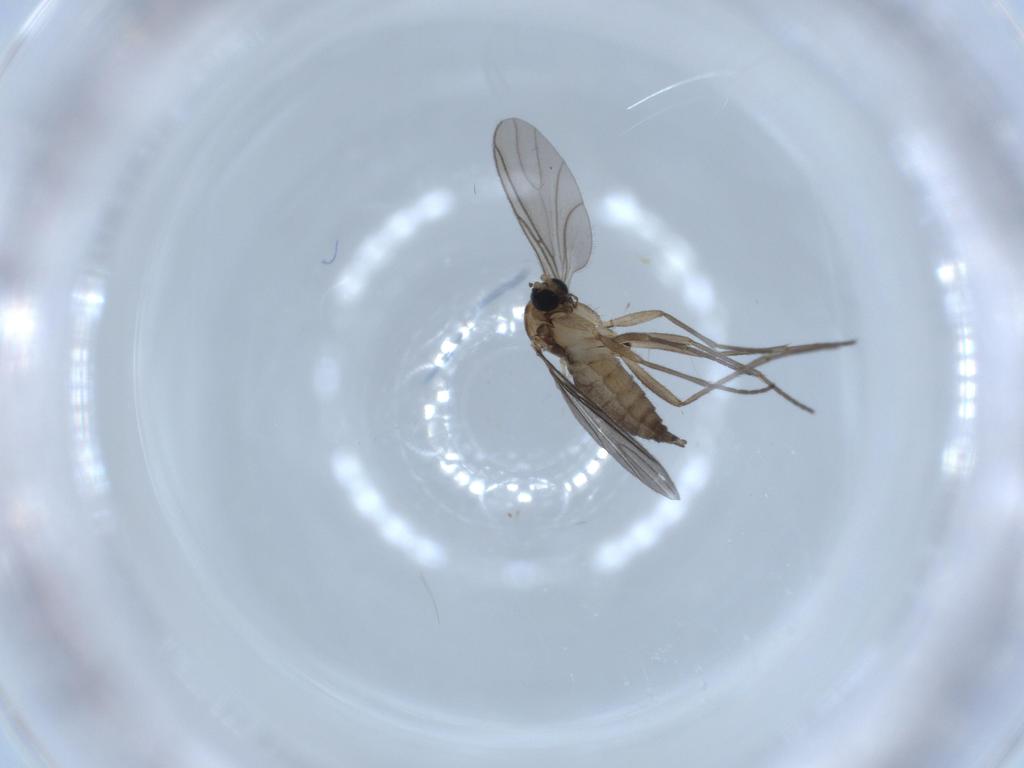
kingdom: Animalia
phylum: Arthropoda
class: Insecta
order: Diptera
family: Sciaridae
